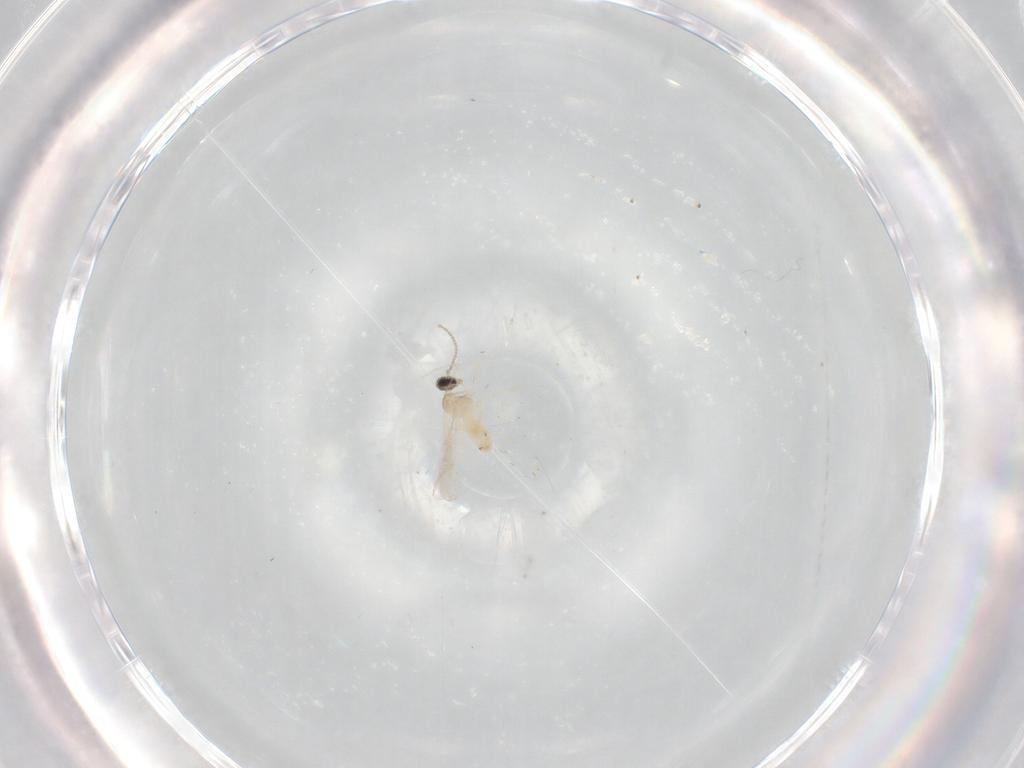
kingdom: Animalia
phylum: Arthropoda
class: Insecta
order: Diptera
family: Cecidomyiidae
